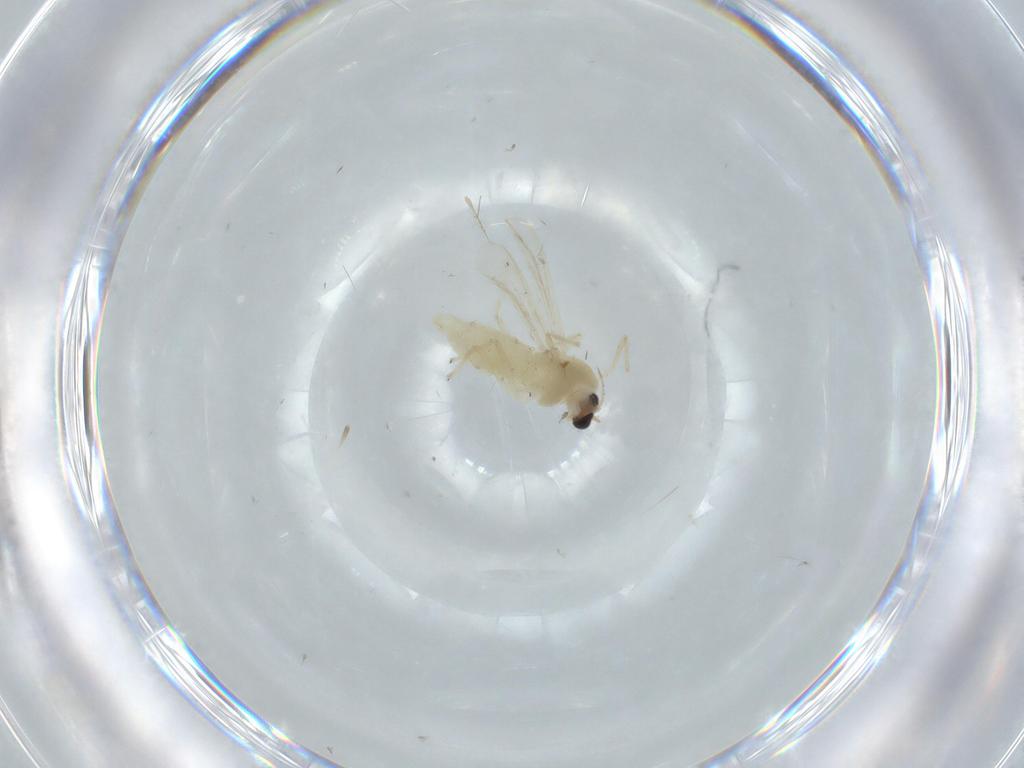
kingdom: Animalia
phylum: Arthropoda
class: Insecta
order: Diptera
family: Chironomidae
